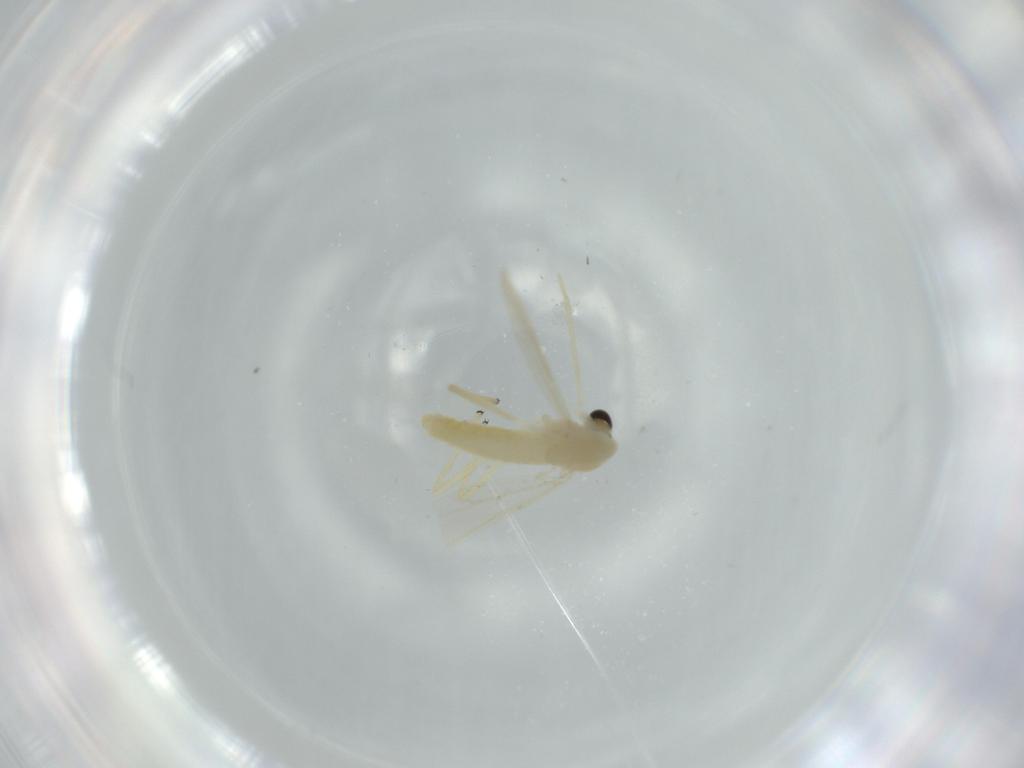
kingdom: Animalia
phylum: Arthropoda
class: Insecta
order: Diptera
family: Chironomidae
